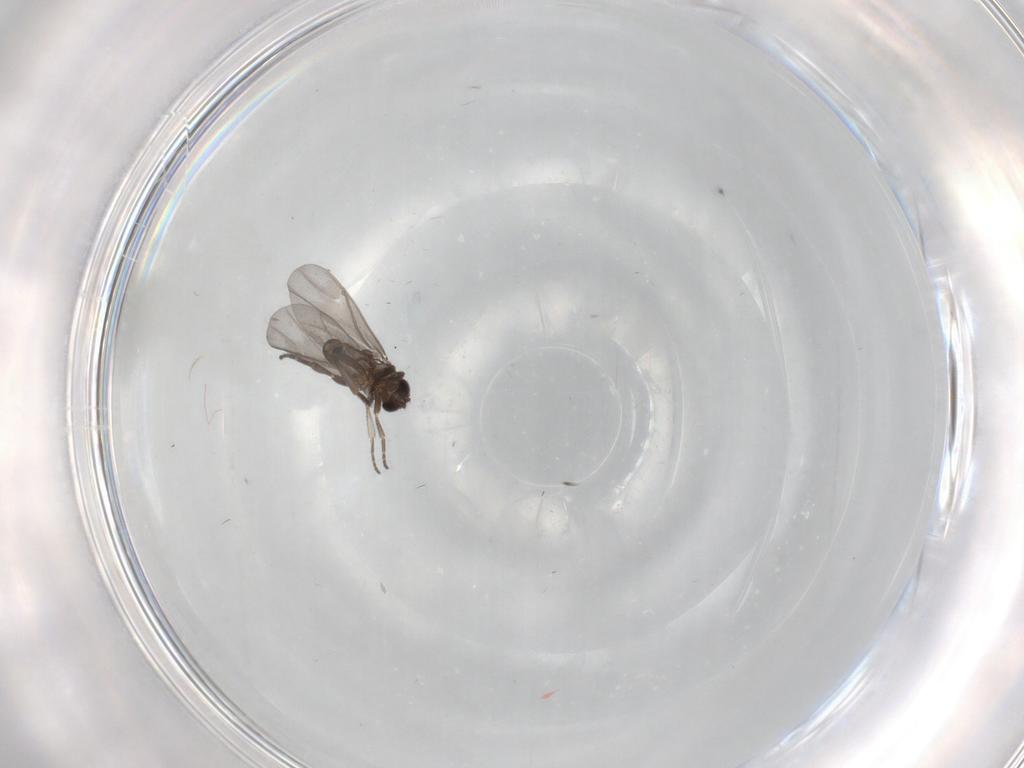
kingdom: Animalia
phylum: Arthropoda
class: Insecta
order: Diptera
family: Phoridae
